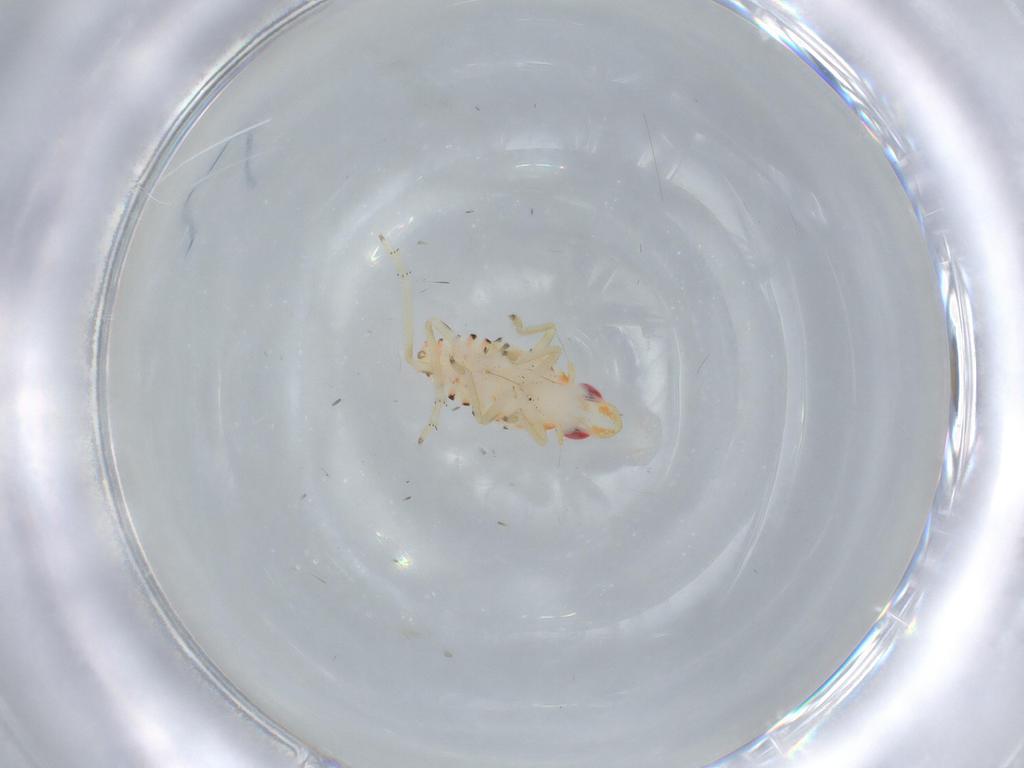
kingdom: Animalia
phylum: Arthropoda
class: Insecta
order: Hemiptera
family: Tropiduchidae
